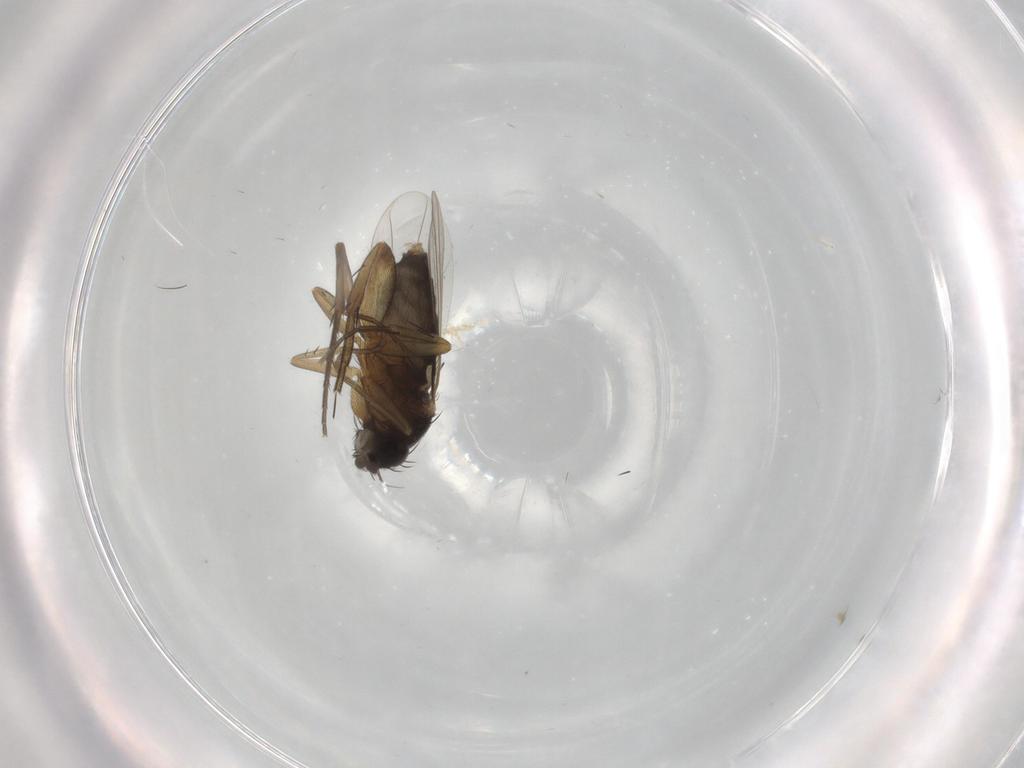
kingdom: Animalia
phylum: Arthropoda
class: Insecta
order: Diptera
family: Phoridae
